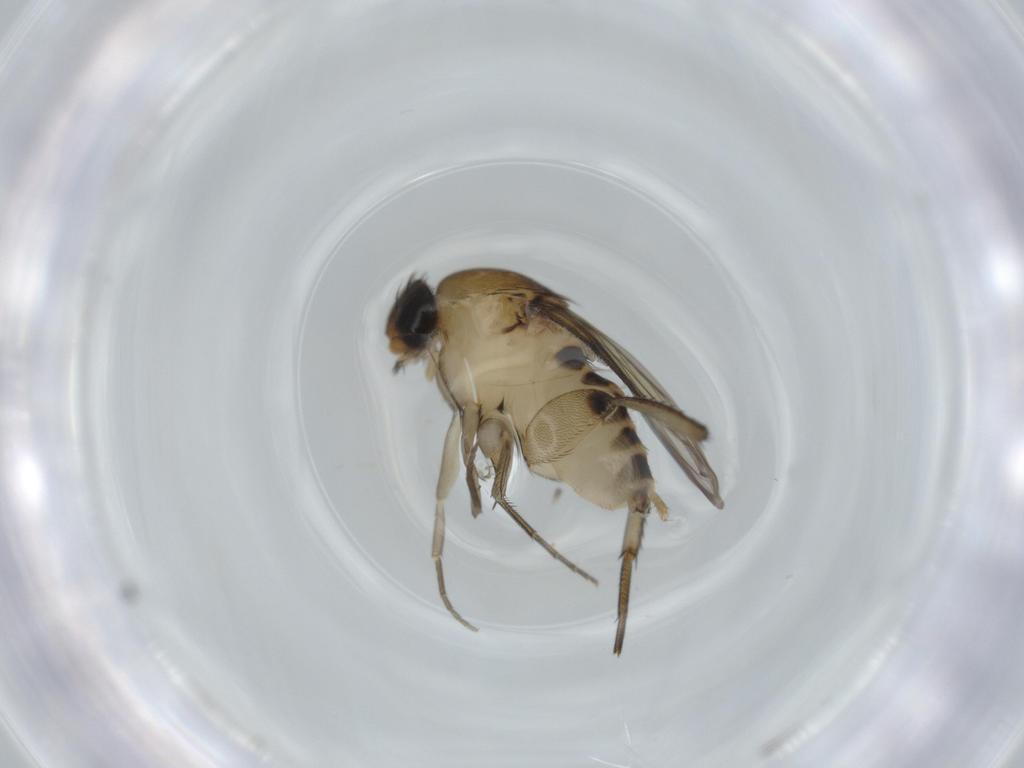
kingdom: Animalia
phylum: Arthropoda
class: Insecta
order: Diptera
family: Phoridae
